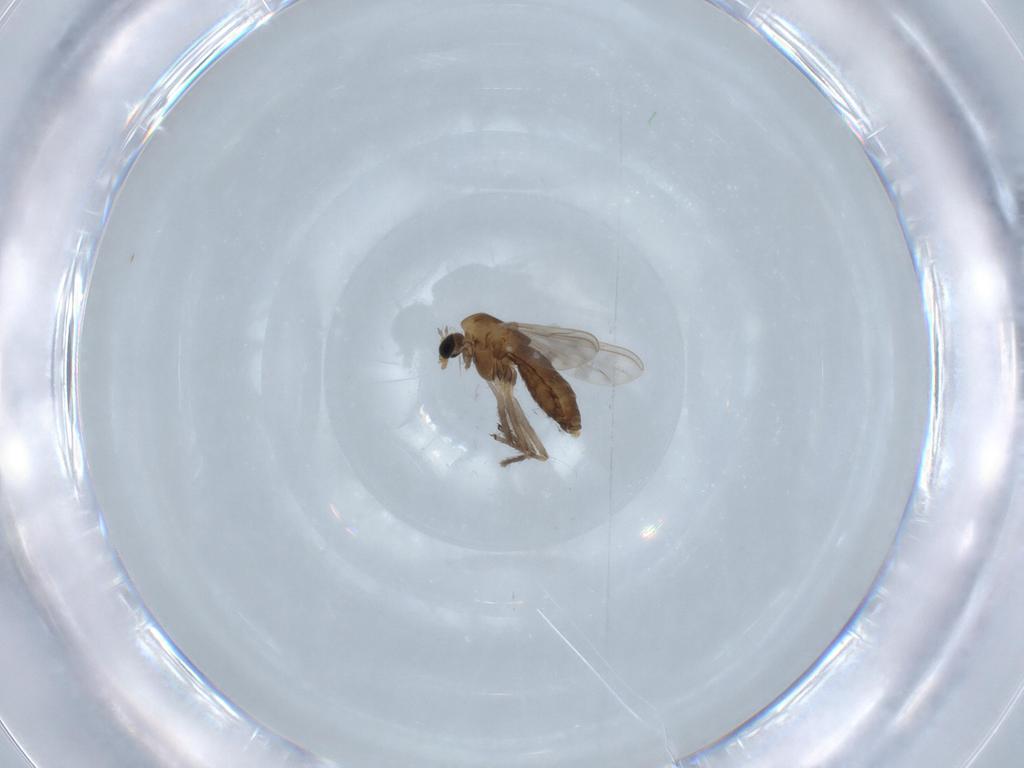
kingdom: Animalia
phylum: Arthropoda
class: Insecta
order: Diptera
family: Chironomidae
